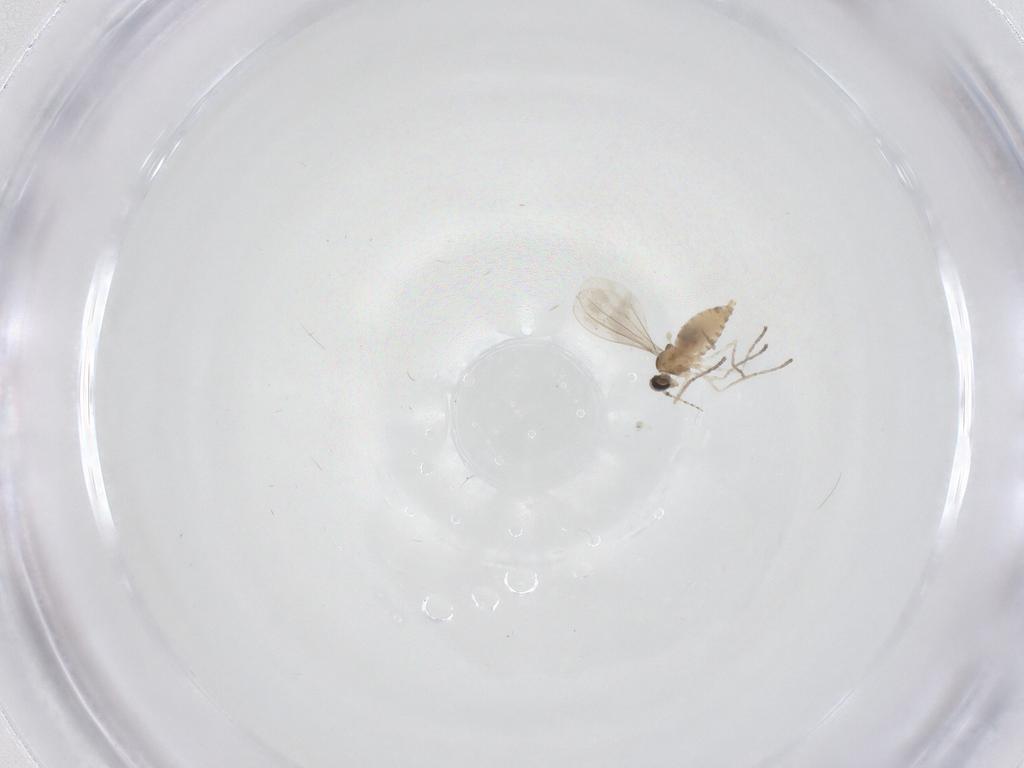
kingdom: Animalia
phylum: Arthropoda
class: Insecta
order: Diptera
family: Cecidomyiidae
